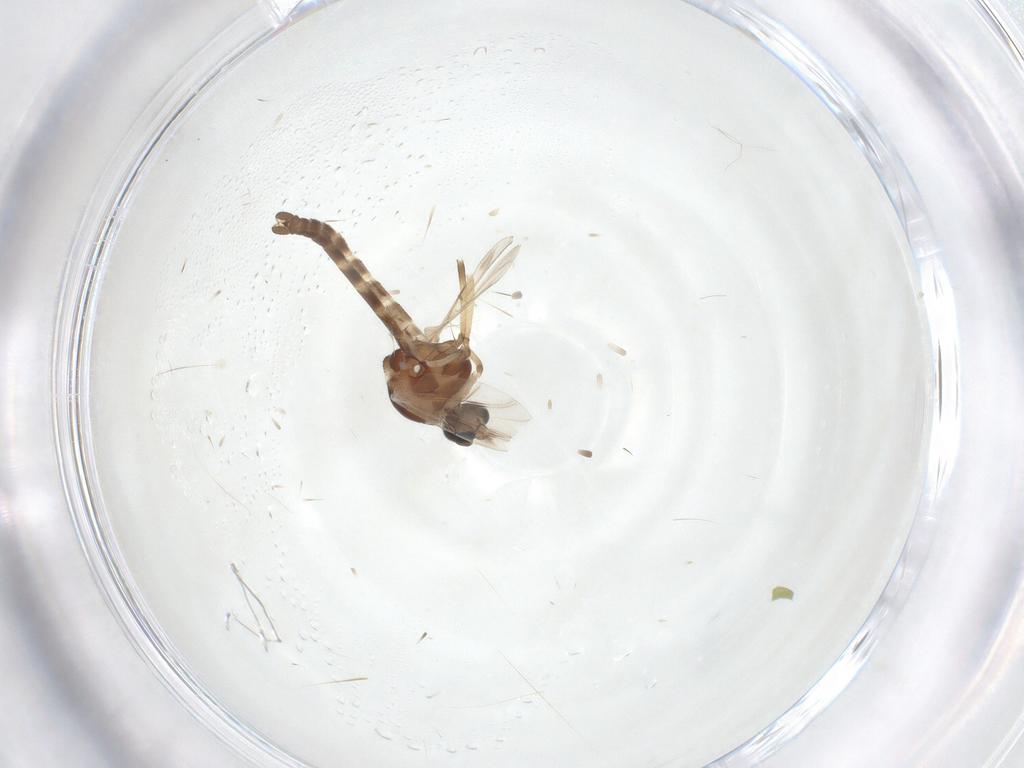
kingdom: Animalia
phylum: Arthropoda
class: Insecta
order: Diptera
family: Ceratopogonidae
